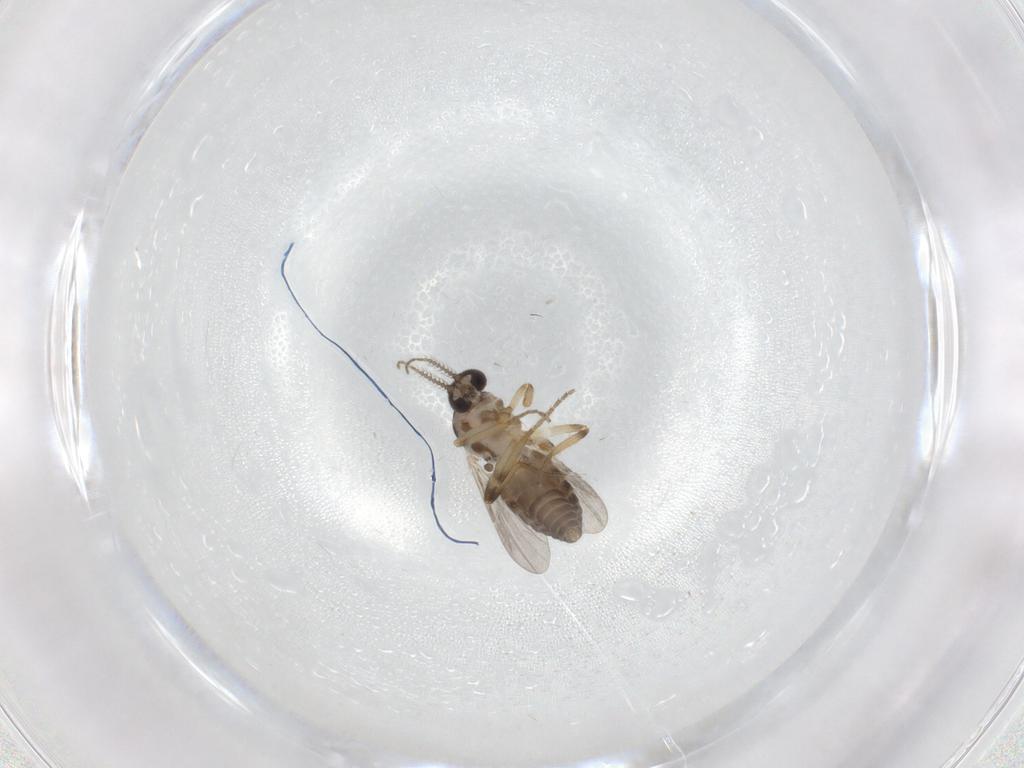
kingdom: Animalia
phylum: Arthropoda
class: Insecta
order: Diptera
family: Ceratopogonidae
